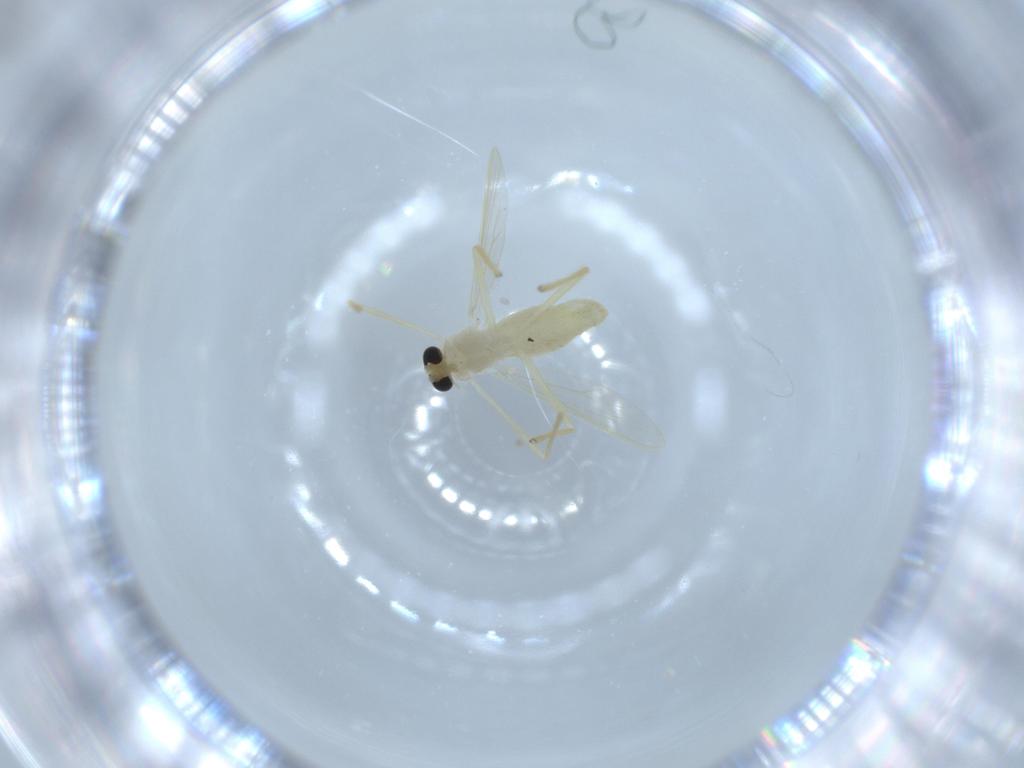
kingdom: Animalia
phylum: Arthropoda
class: Insecta
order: Diptera
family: Chironomidae
